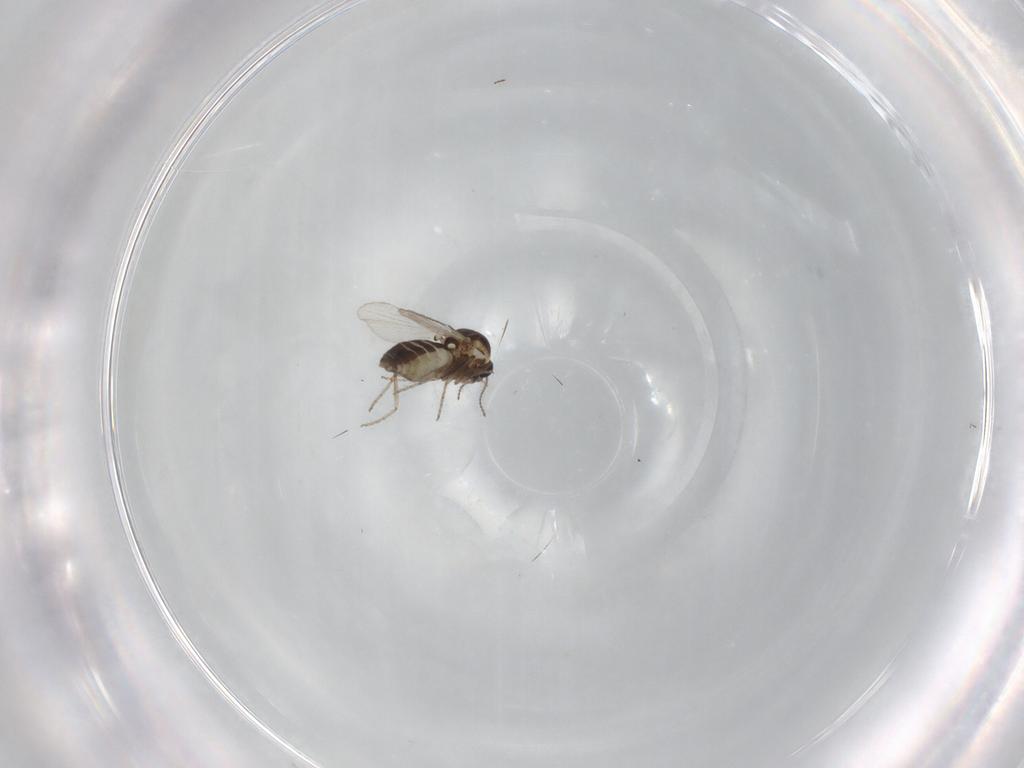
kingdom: Animalia
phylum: Arthropoda
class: Insecta
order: Diptera
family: Ceratopogonidae
